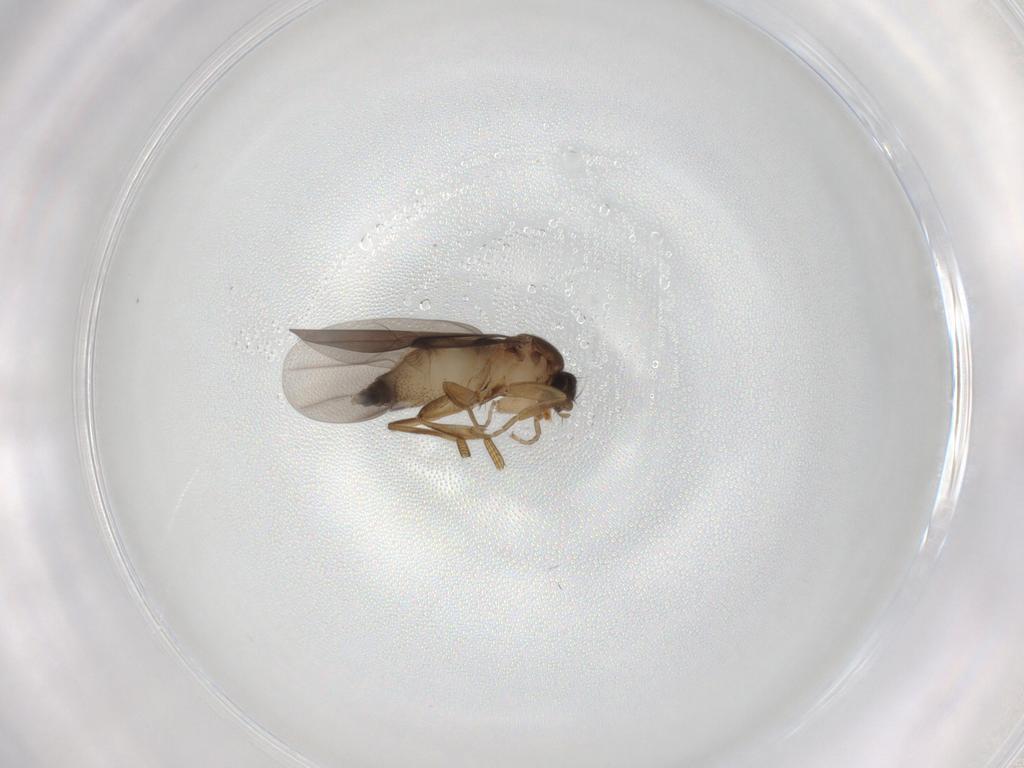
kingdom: Animalia
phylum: Arthropoda
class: Insecta
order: Diptera
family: Phoridae
